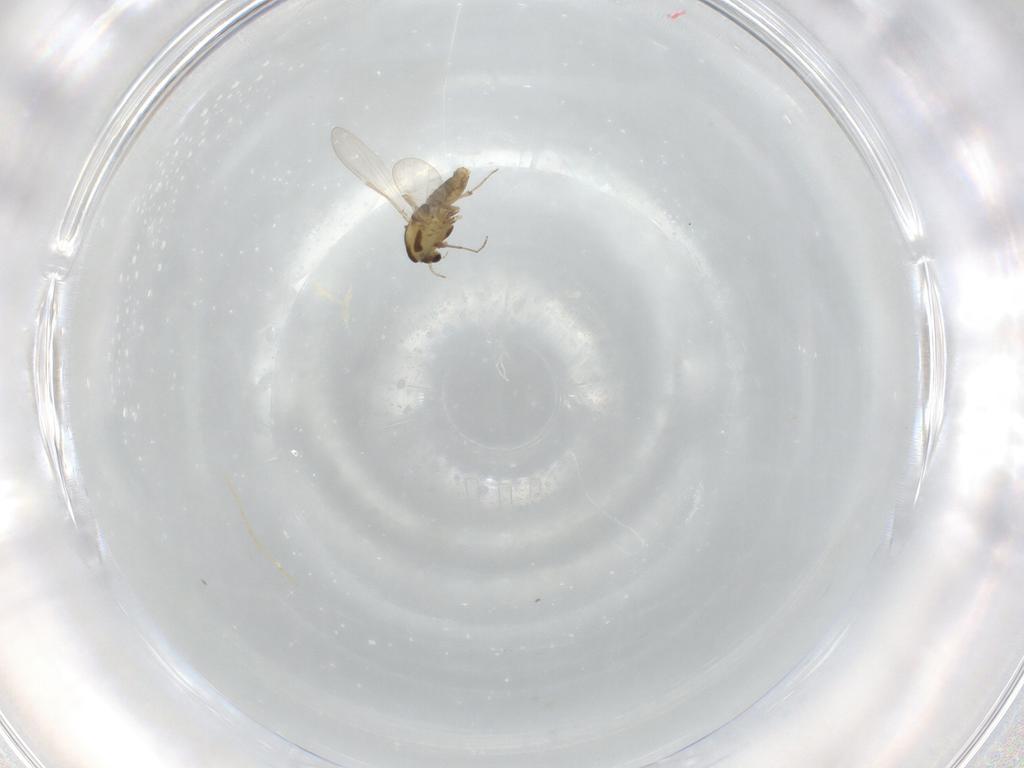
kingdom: Animalia
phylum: Arthropoda
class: Insecta
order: Diptera
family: Chironomidae
